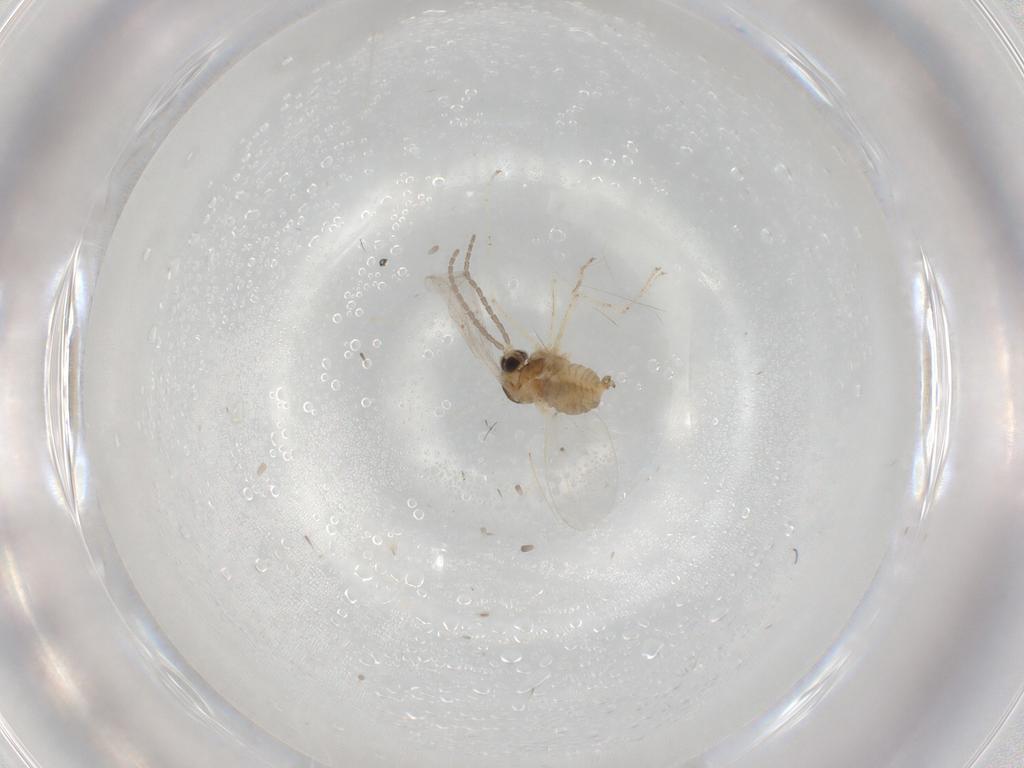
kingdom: Animalia
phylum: Arthropoda
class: Insecta
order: Diptera
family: Cecidomyiidae
